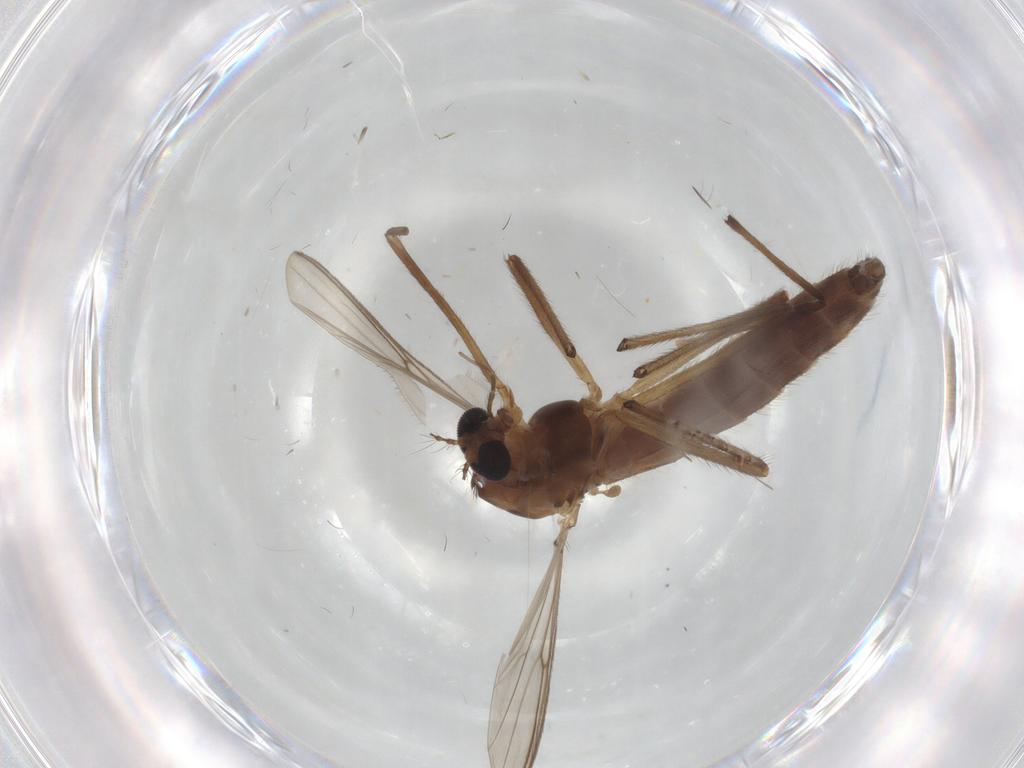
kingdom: Animalia
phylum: Arthropoda
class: Insecta
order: Diptera
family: Chironomidae
